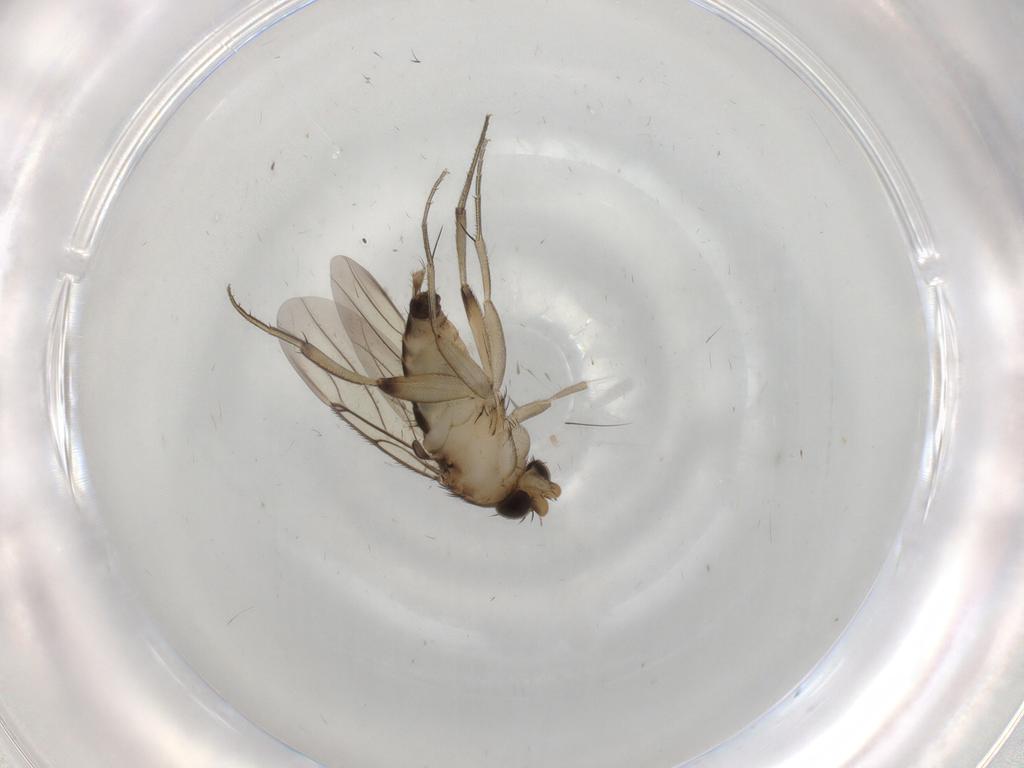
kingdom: Animalia
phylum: Arthropoda
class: Insecta
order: Diptera
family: Phoridae
